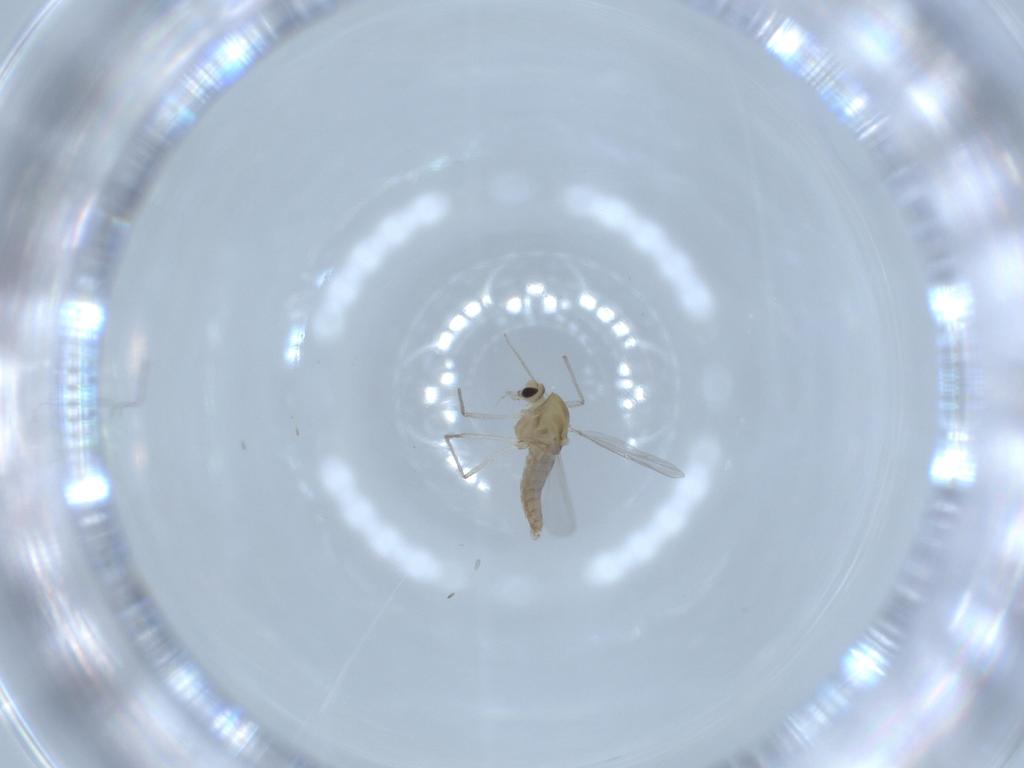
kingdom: Animalia
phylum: Arthropoda
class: Insecta
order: Diptera
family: Chironomidae
